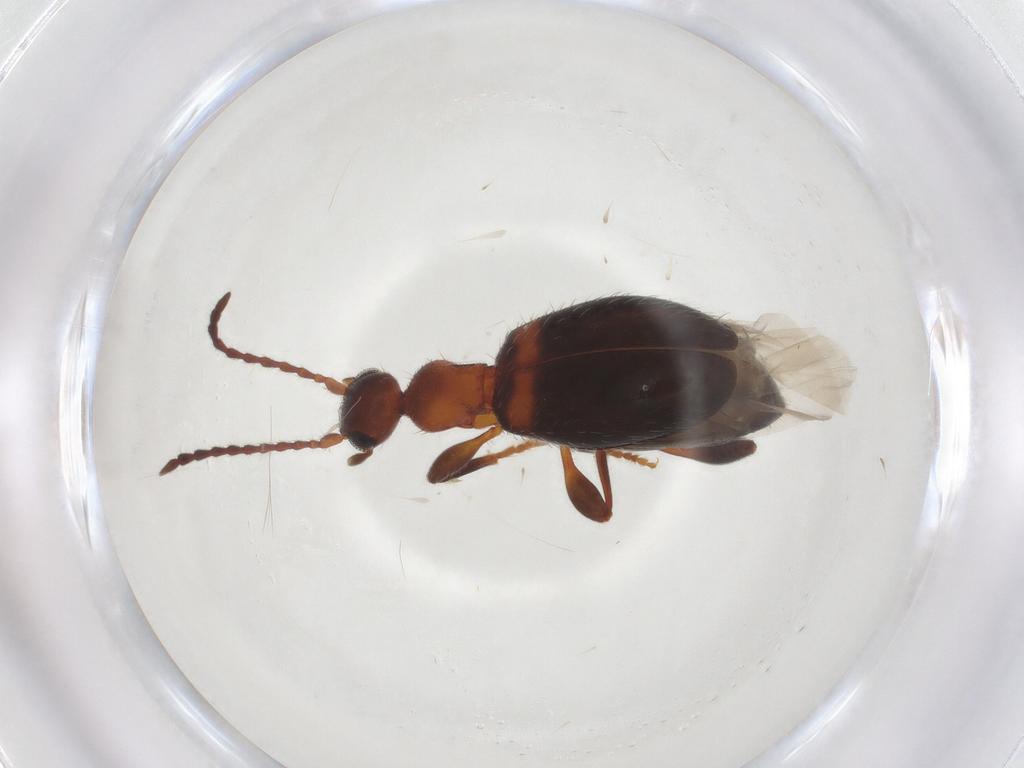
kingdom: Animalia
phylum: Arthropoda
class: Insecta
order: Coleoptera
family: Anthicidae
